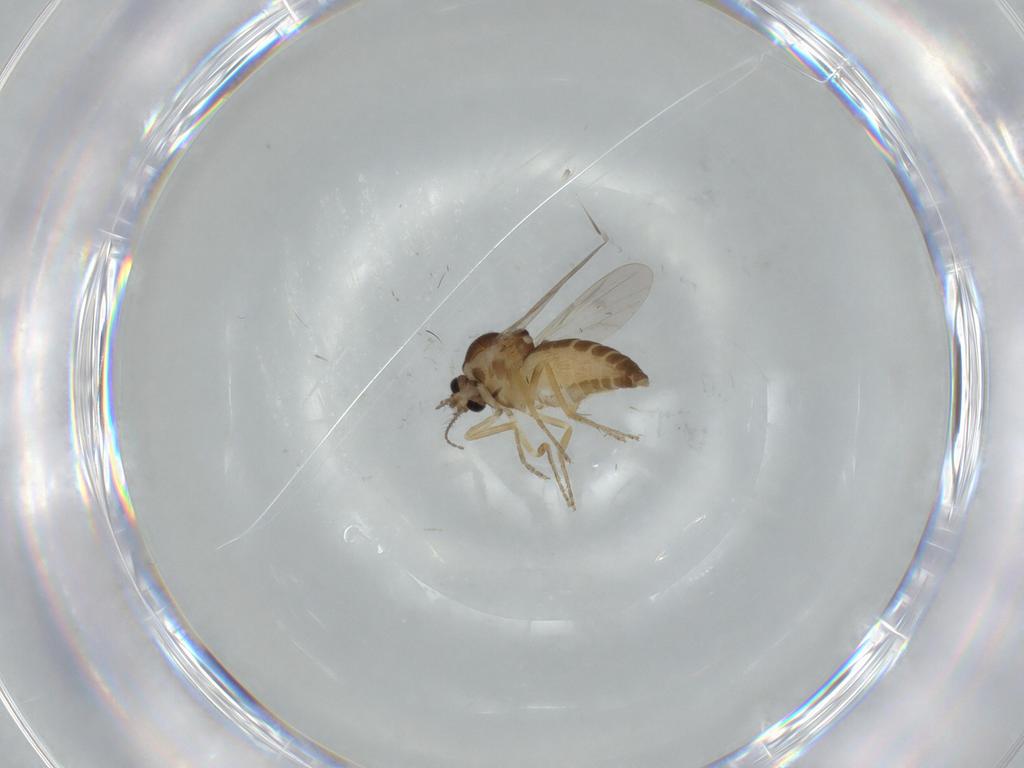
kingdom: Animalia
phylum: Arthropoda
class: Insecta
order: Diptera
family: Ceratopogonidae
